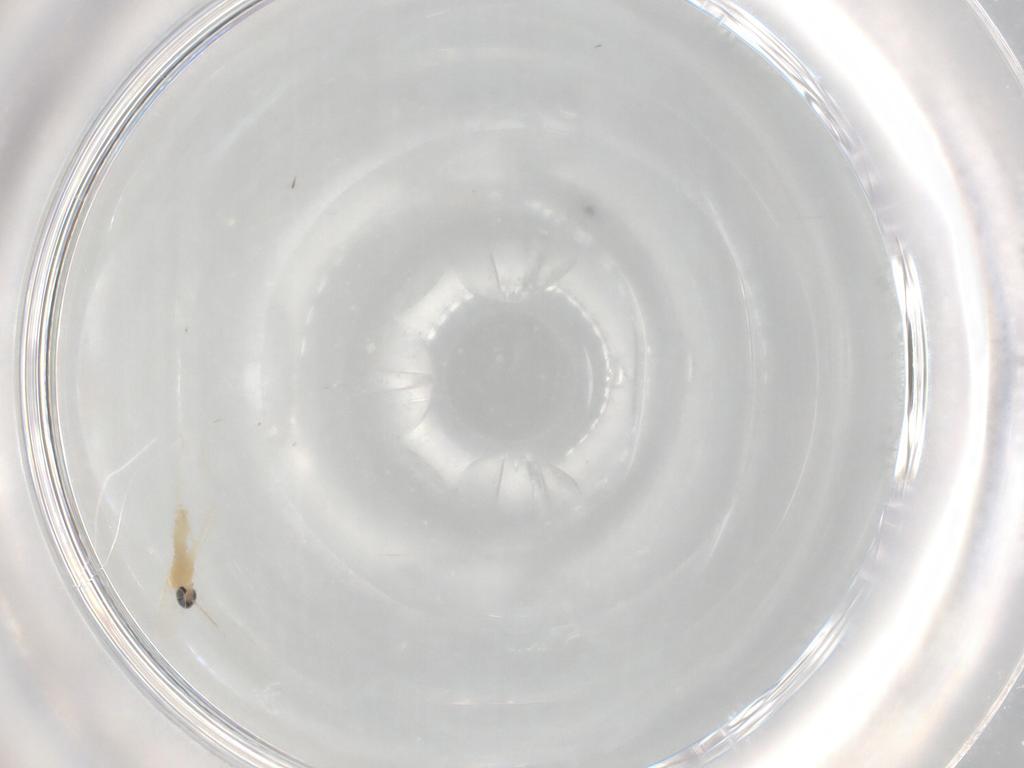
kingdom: Animalia
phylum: Arthropoda
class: Insecta
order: Diptera
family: Cecidomyiidae
